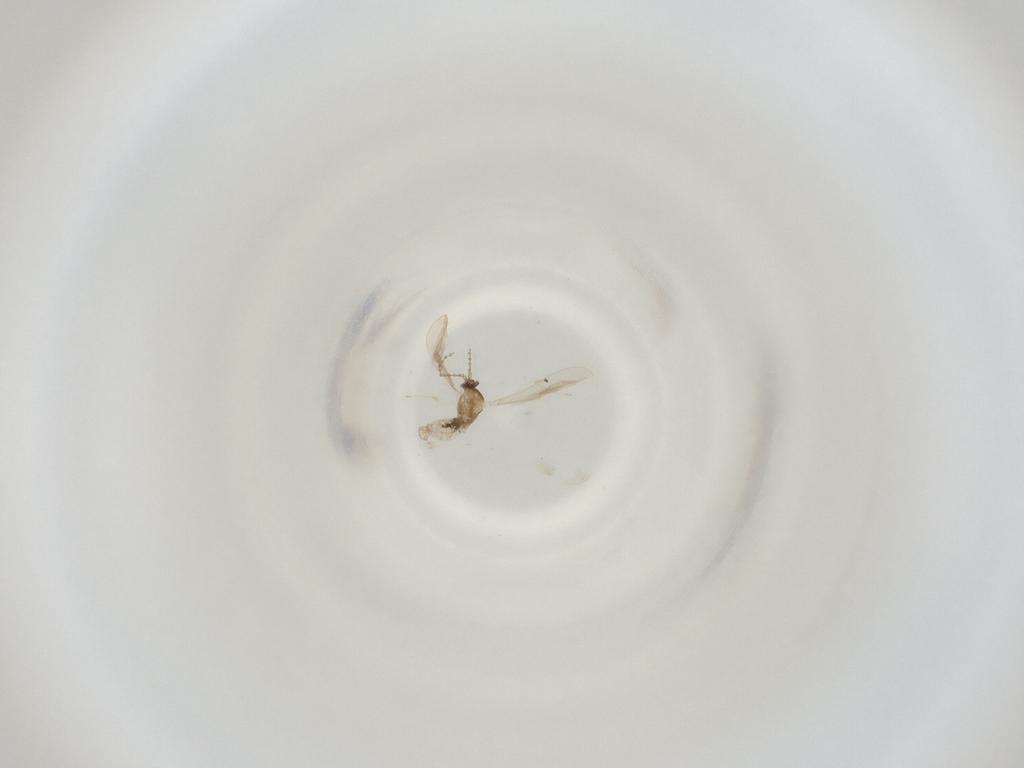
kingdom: Animalia
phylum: Arthropoda
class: Insecta
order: Diptera
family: Cecidomyiidae
